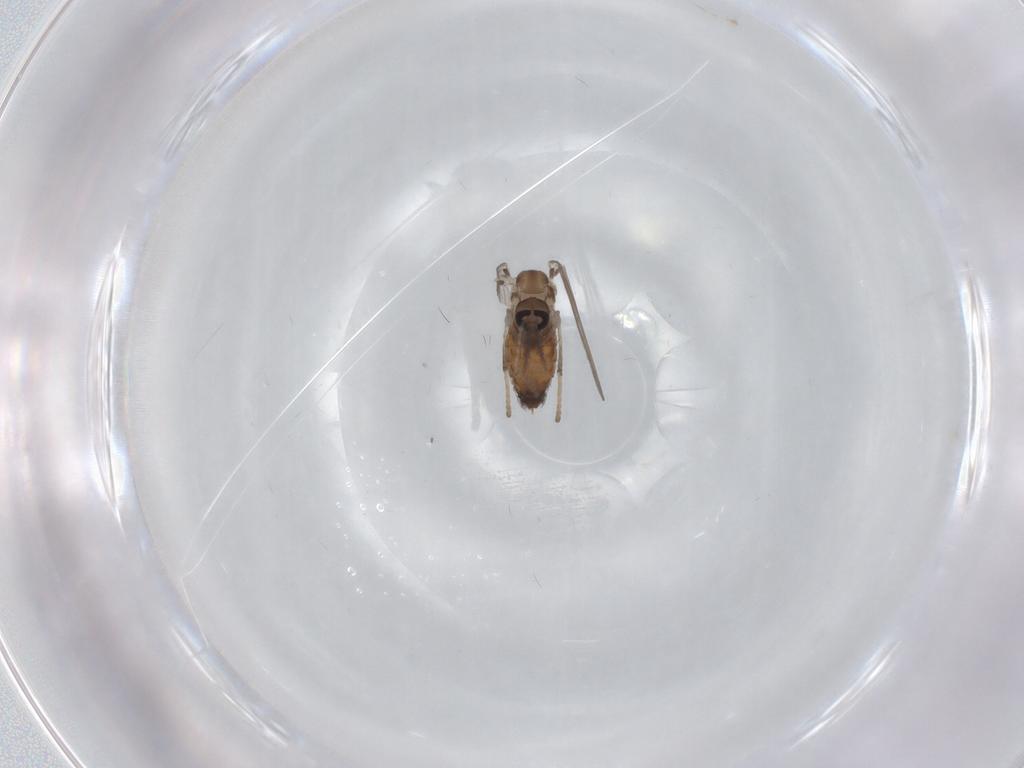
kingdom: Animalia
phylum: Arthropoda
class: Insecta
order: Diptera
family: Psychodidae
